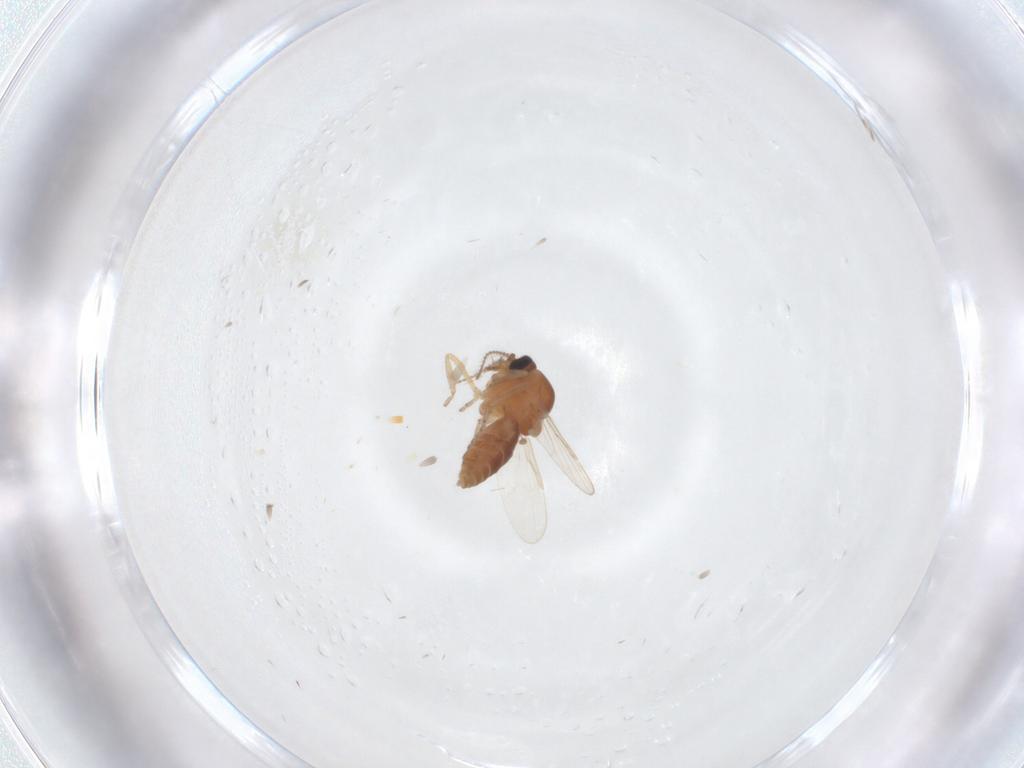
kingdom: Animalia
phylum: Arthropoda
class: Insecta
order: Diptera
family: Ceratopogonidae
